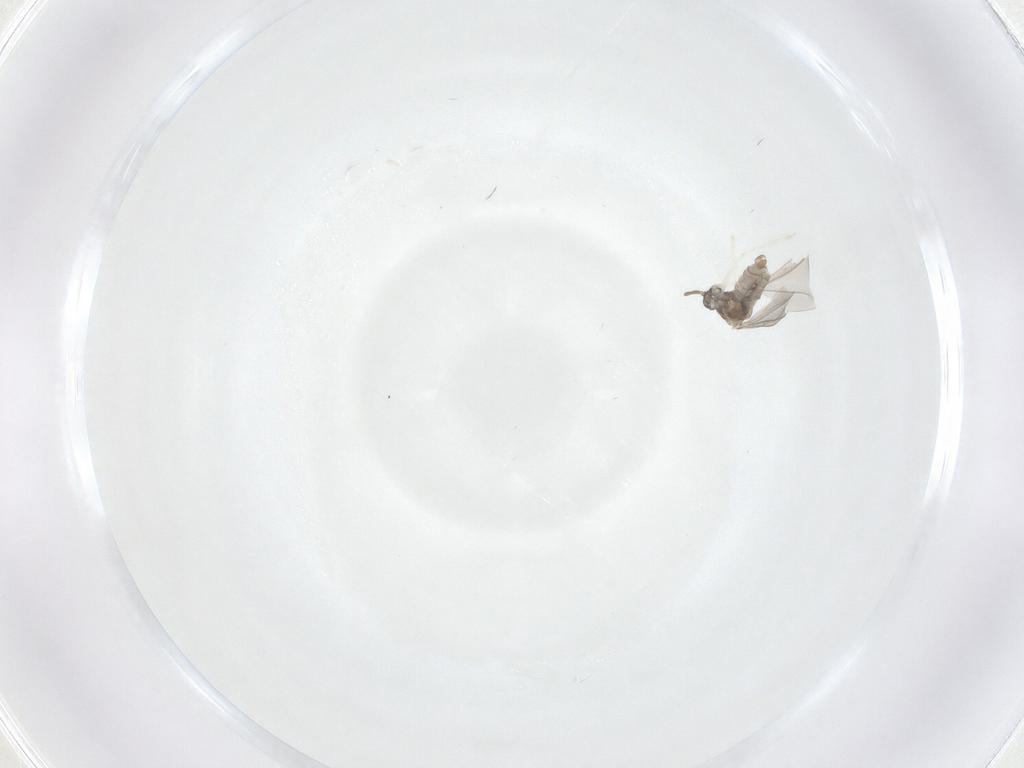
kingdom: Animalia
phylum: Arthropoda
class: Insecta
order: Diptera
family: Cecidomyiidae
